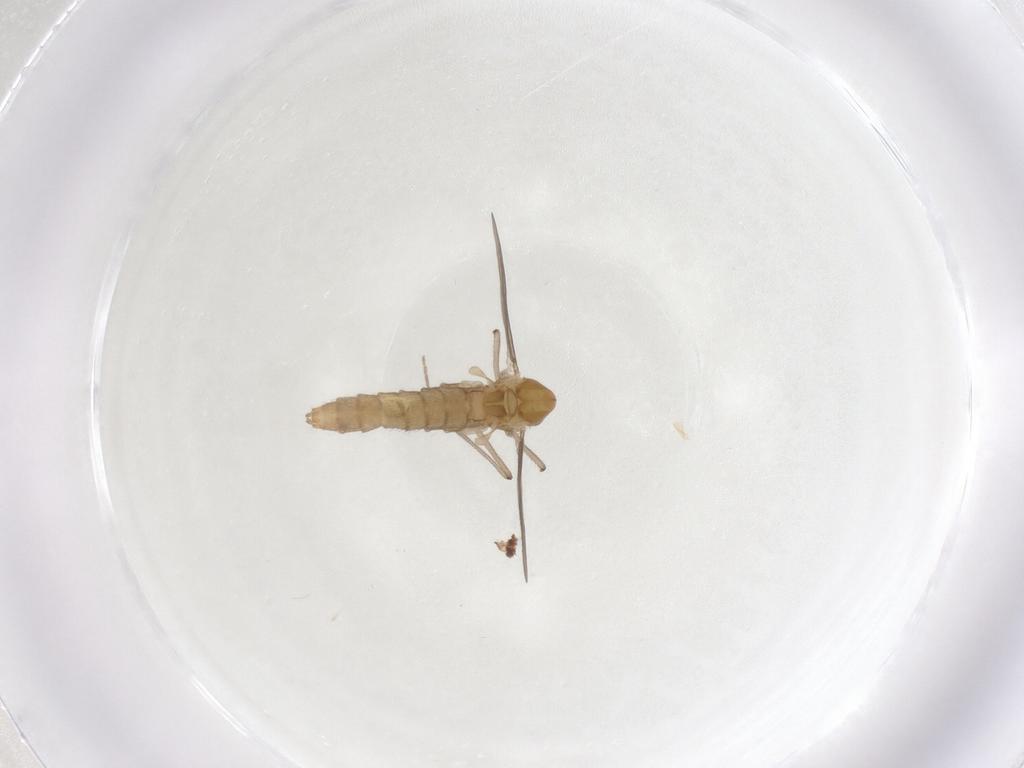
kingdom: Animalia
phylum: Arthropoda
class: Insecta
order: Diptera
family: Chironomidae
